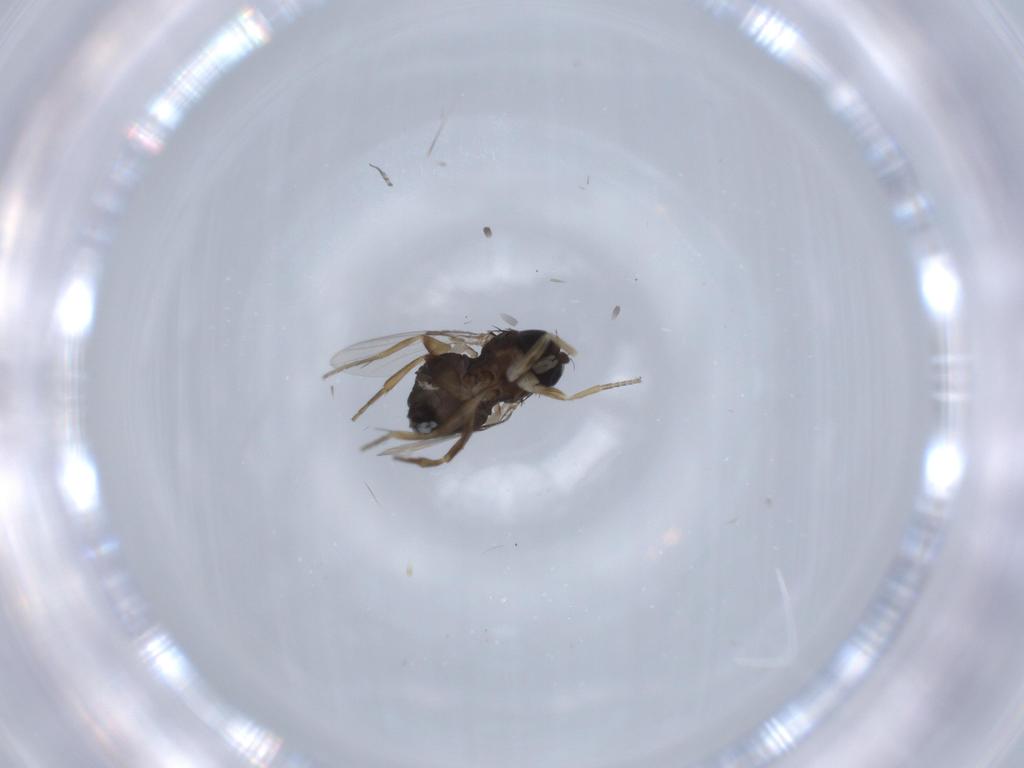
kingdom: Animalia
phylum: Arthropoda
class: Insecta
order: Diptera
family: Phoridae
